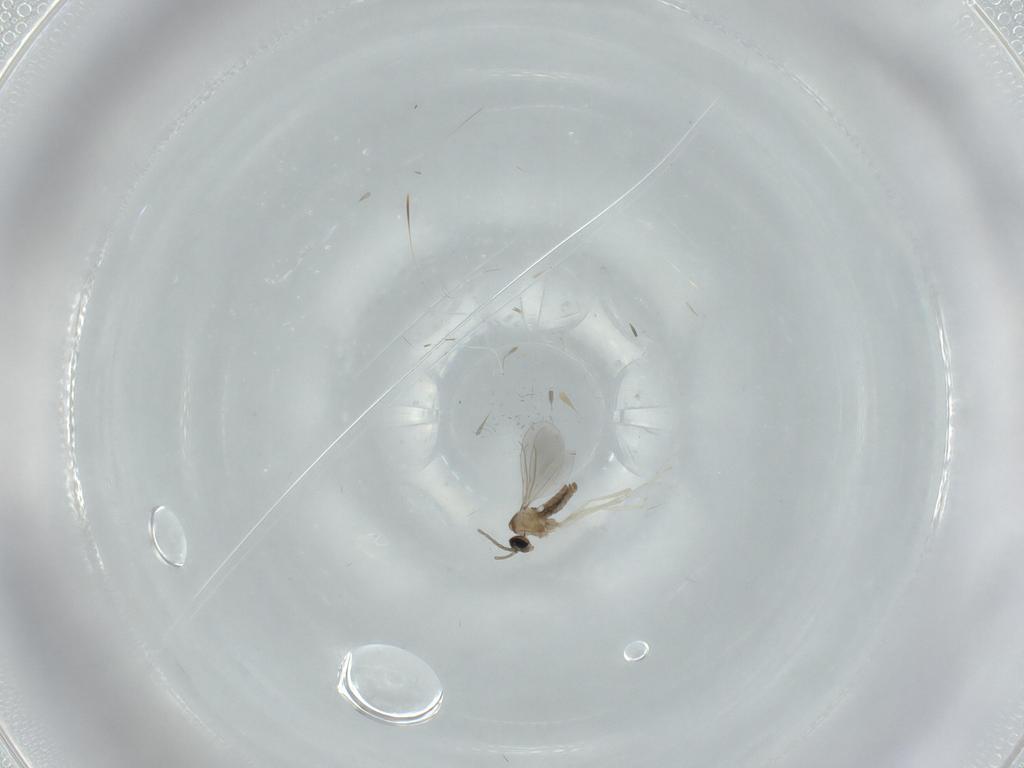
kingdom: Animalia
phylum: Arthropoda
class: Insecta
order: Diptera
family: Cecidomyiidae
